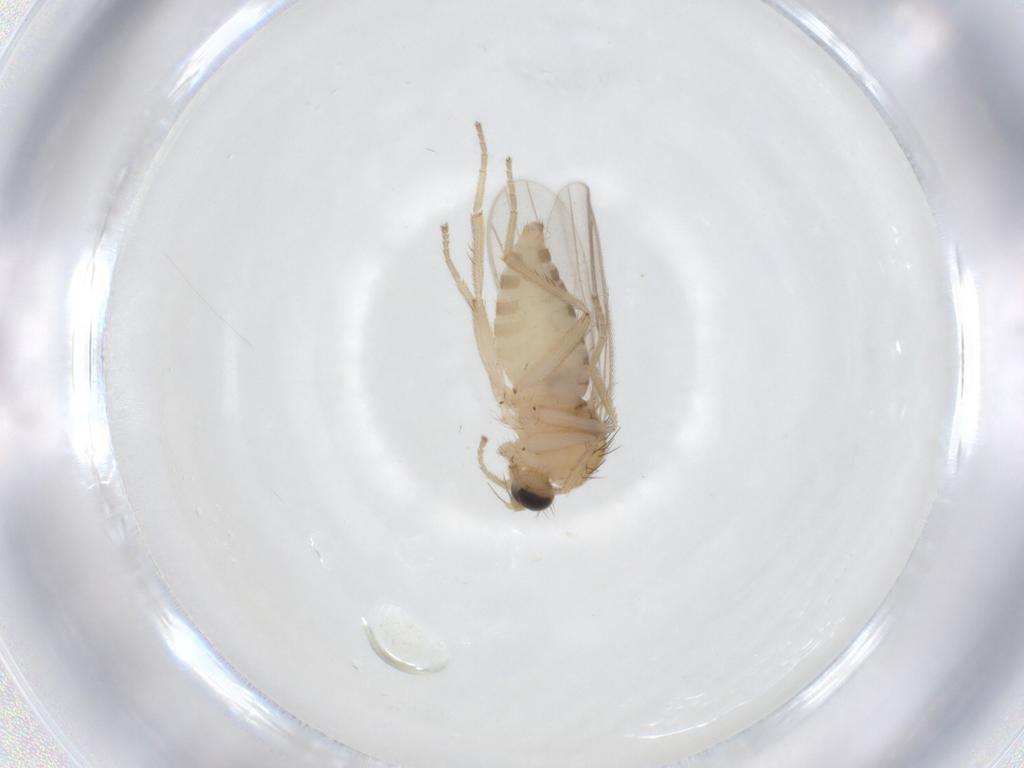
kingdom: Animalia
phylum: Arthropoda
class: Insecta
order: Diptera
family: Hybotidae
